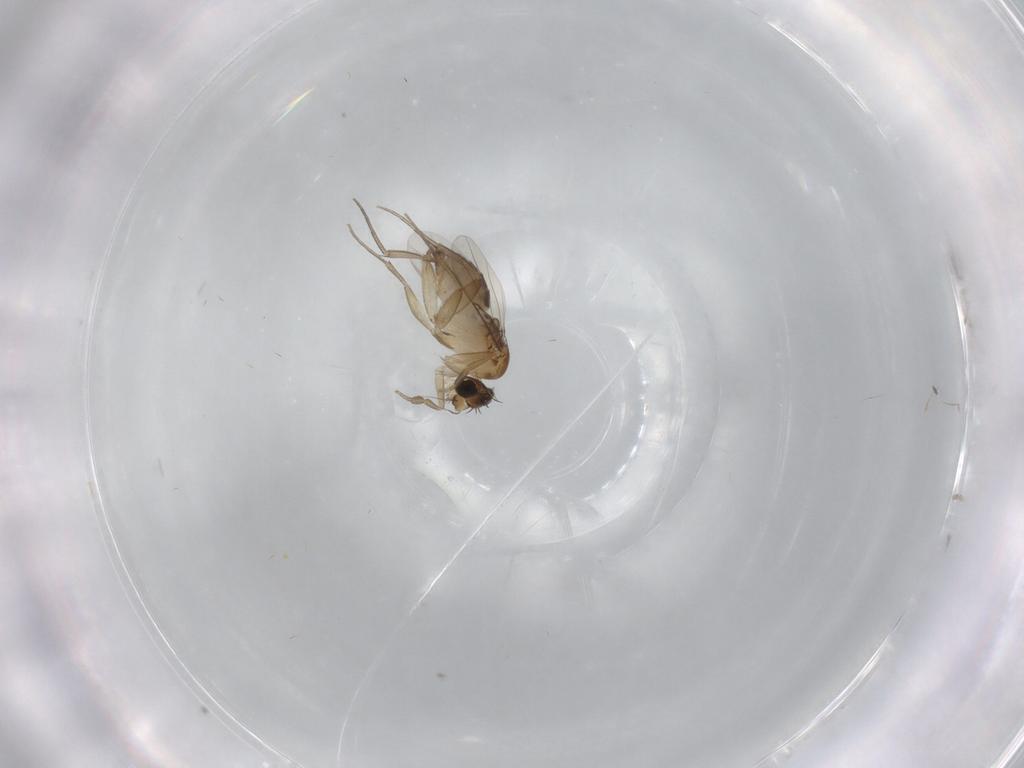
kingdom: Animalia
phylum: Arthropoda
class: Insecta
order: Diptera
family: Phoridae
